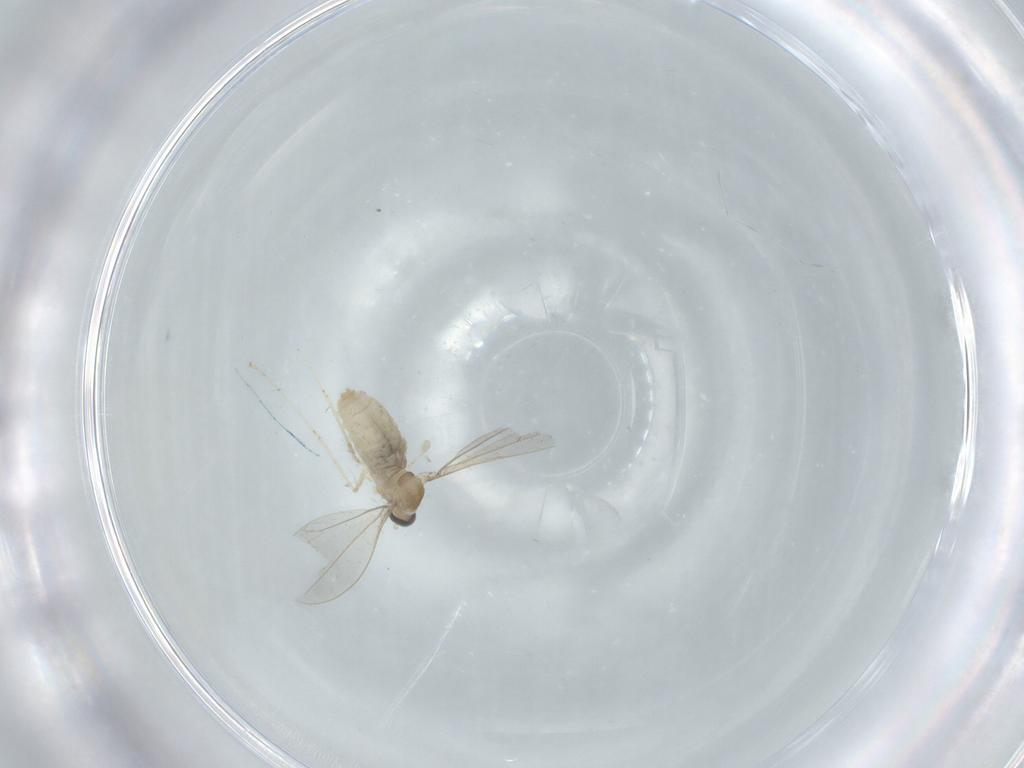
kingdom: Animalia
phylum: Arthropoda
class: Insecta
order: Diptera
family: Cecidomyiidae
